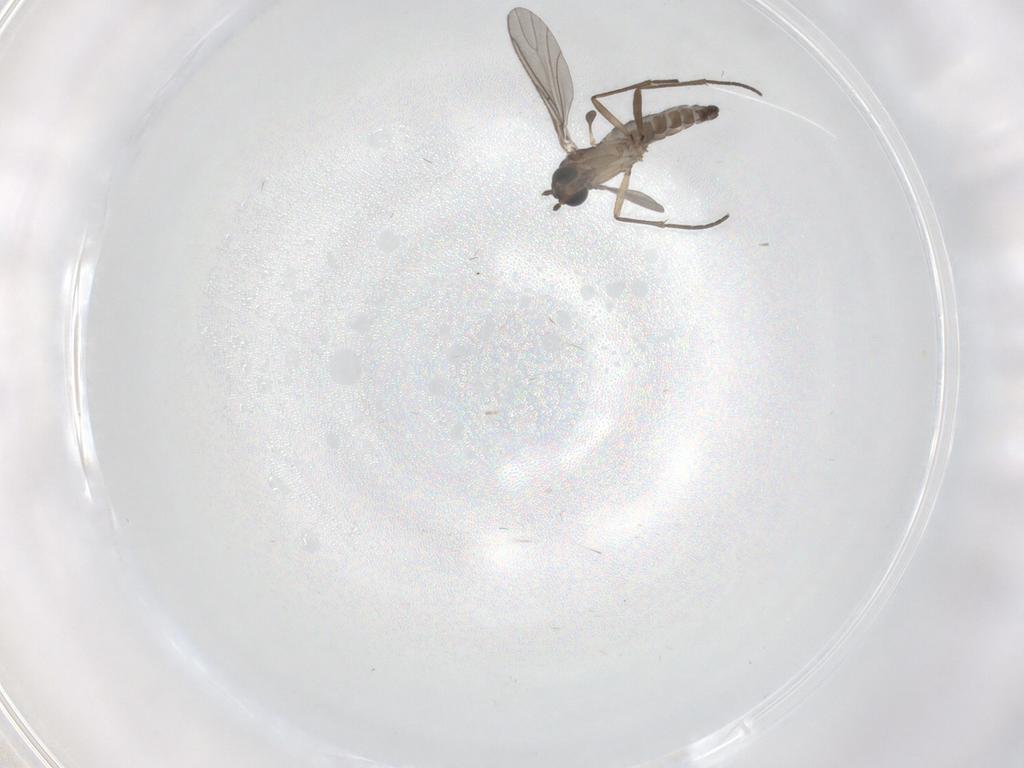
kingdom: Animalia
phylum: Arthropoda
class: Insecta
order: Diptera
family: Sciaridae
